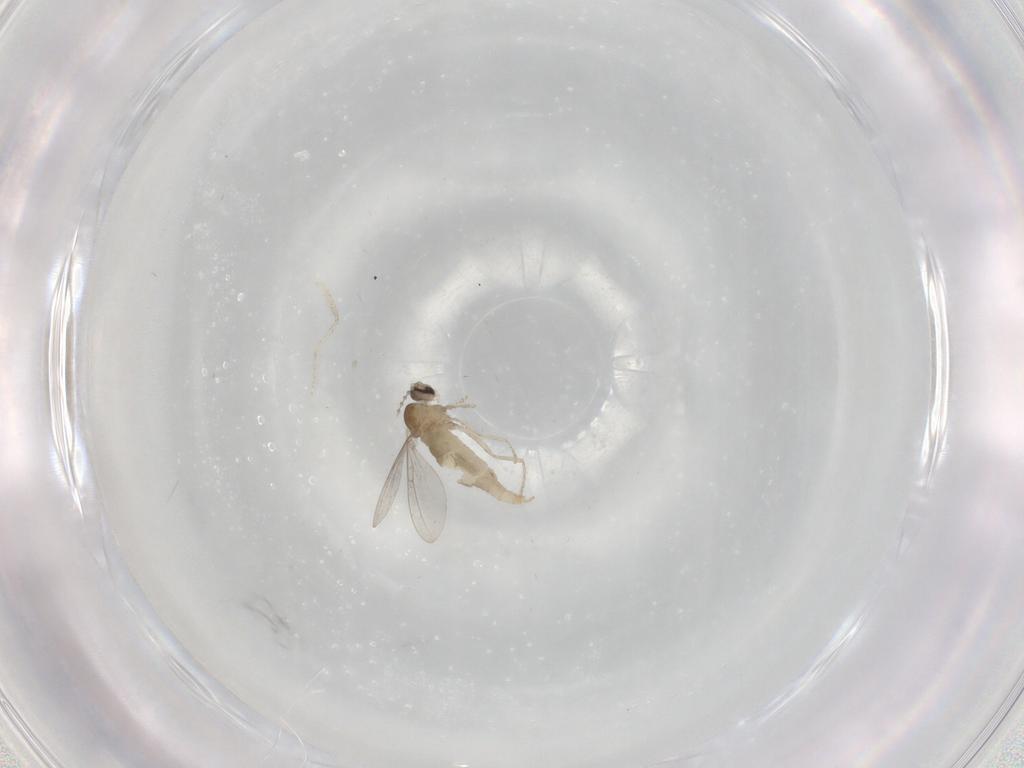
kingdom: Animalia
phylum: Arthropoda
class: Insecta
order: Diptera
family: Cecidomyiidae
